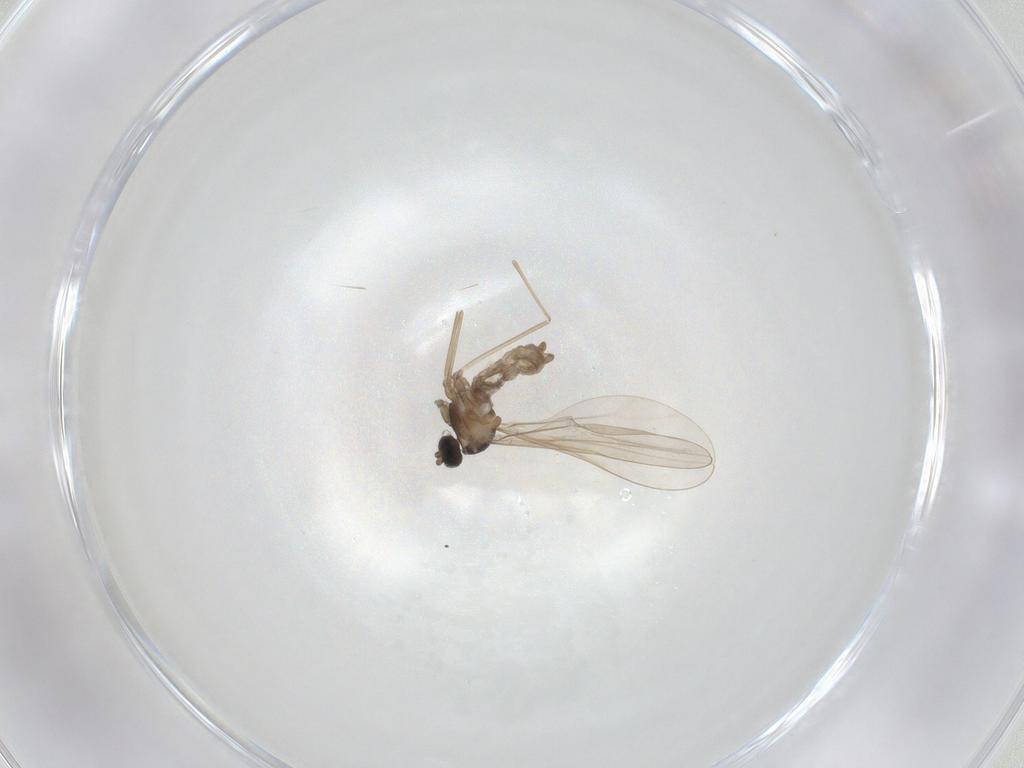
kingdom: Animalia
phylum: Arthropoda
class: Insecta
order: Diptera
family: Cecidomyiidae
